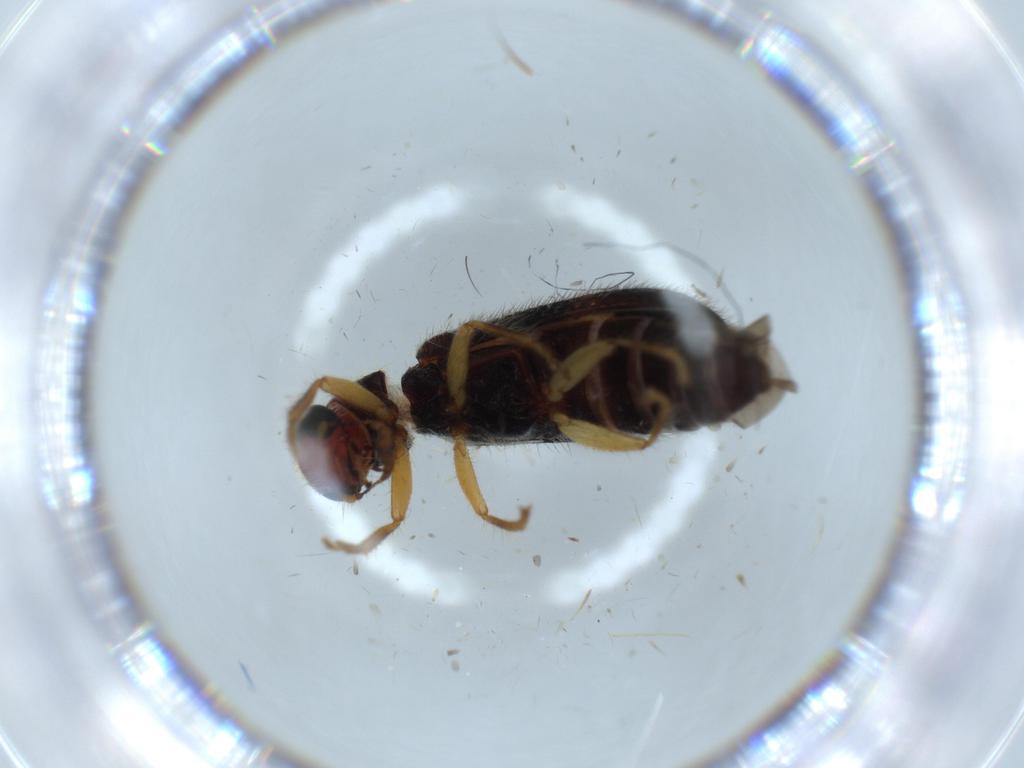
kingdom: Animalia
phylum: Arthropoda
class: Insecta
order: Coleoptera
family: Cleridae
